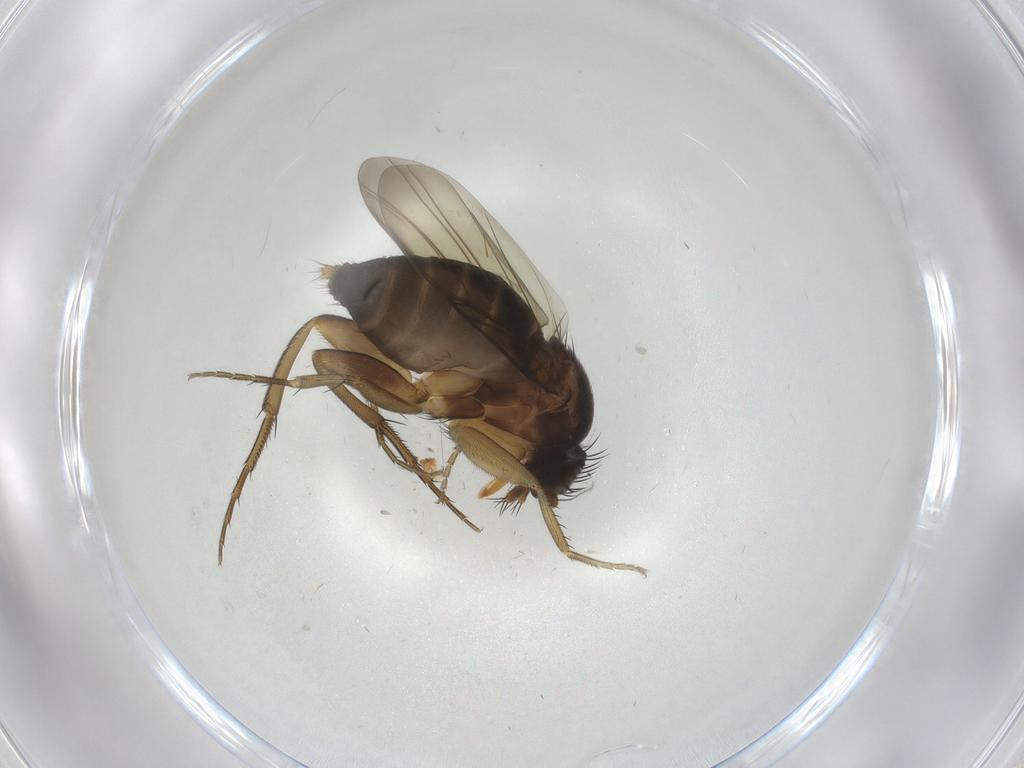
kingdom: Animalia
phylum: Arthropoda
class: Insecta
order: Diptera
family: Phoridae
